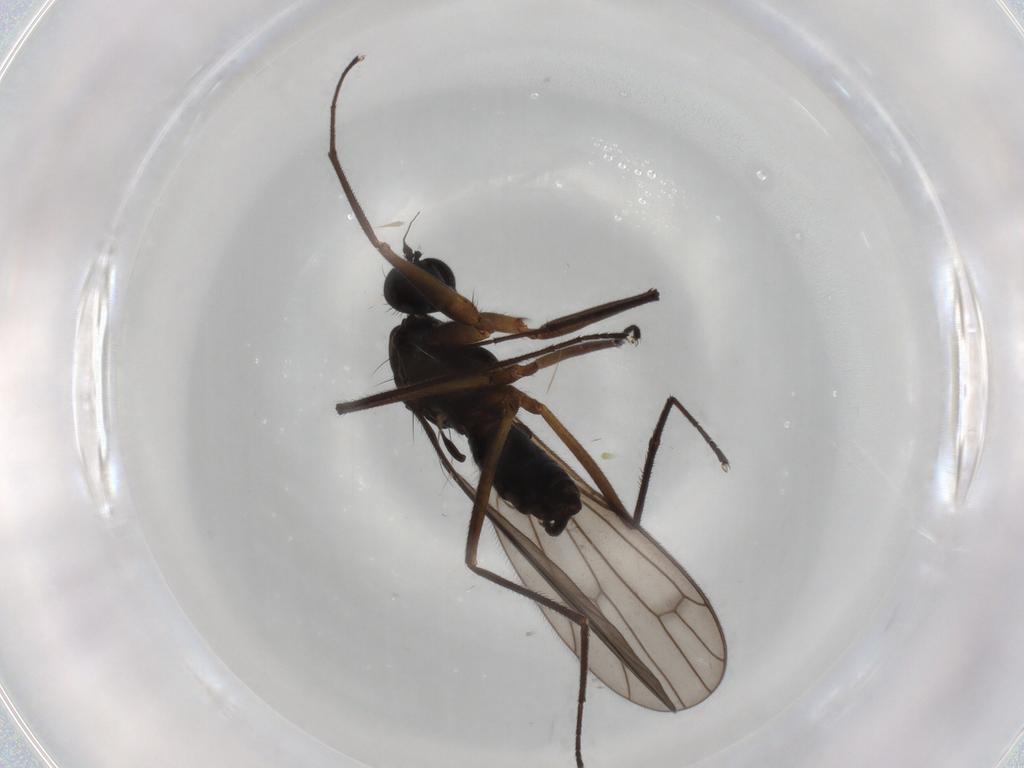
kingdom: Animalia
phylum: Arthropoda
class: Insecta
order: Diptera
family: Empididae
